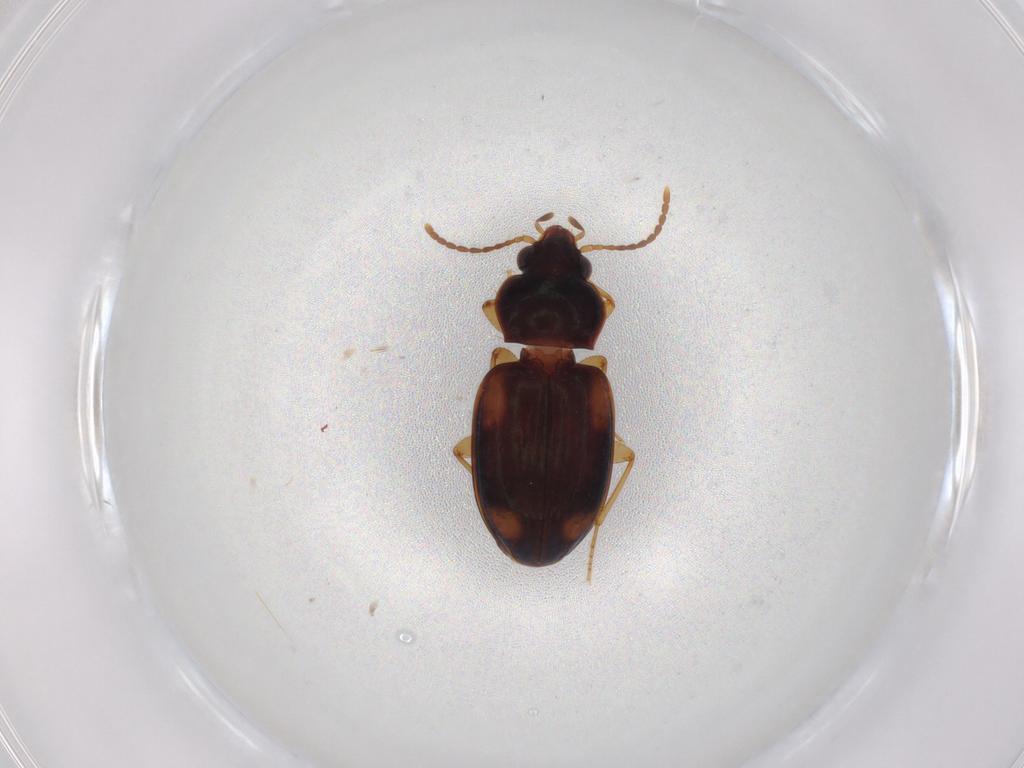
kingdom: Animalia
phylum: Arthropoda
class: Insecta
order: Coleoptera
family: Carabidae
